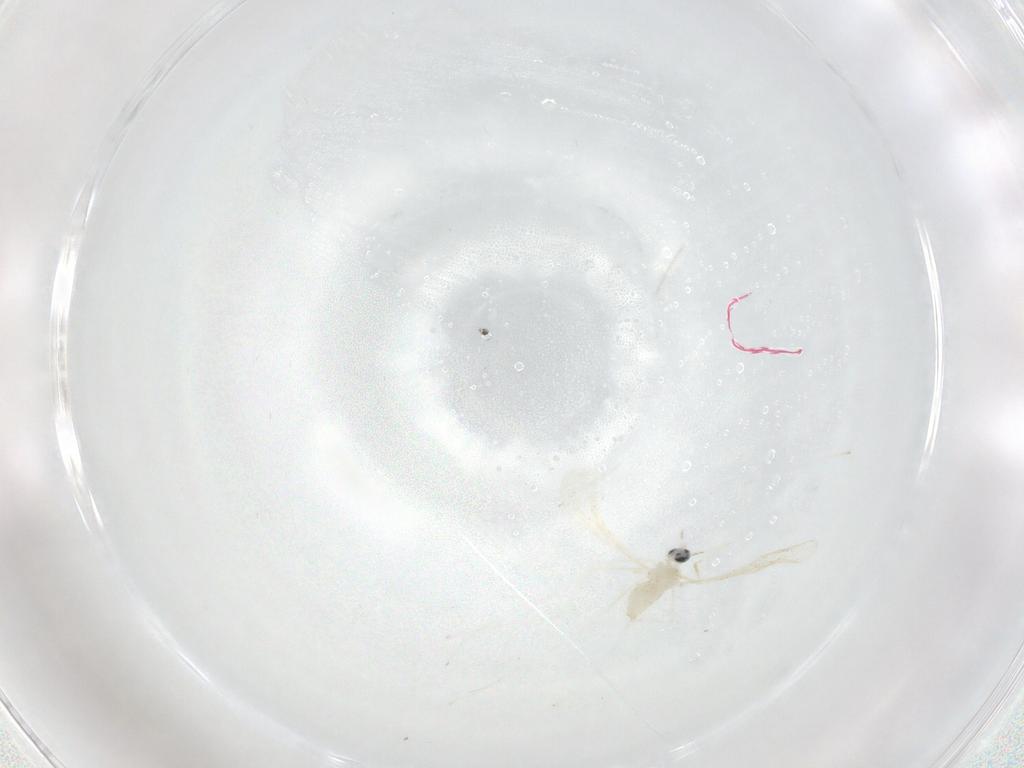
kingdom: Animalia
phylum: Arthropoda
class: Insecta
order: Diptera
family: Cecidomyiidae
